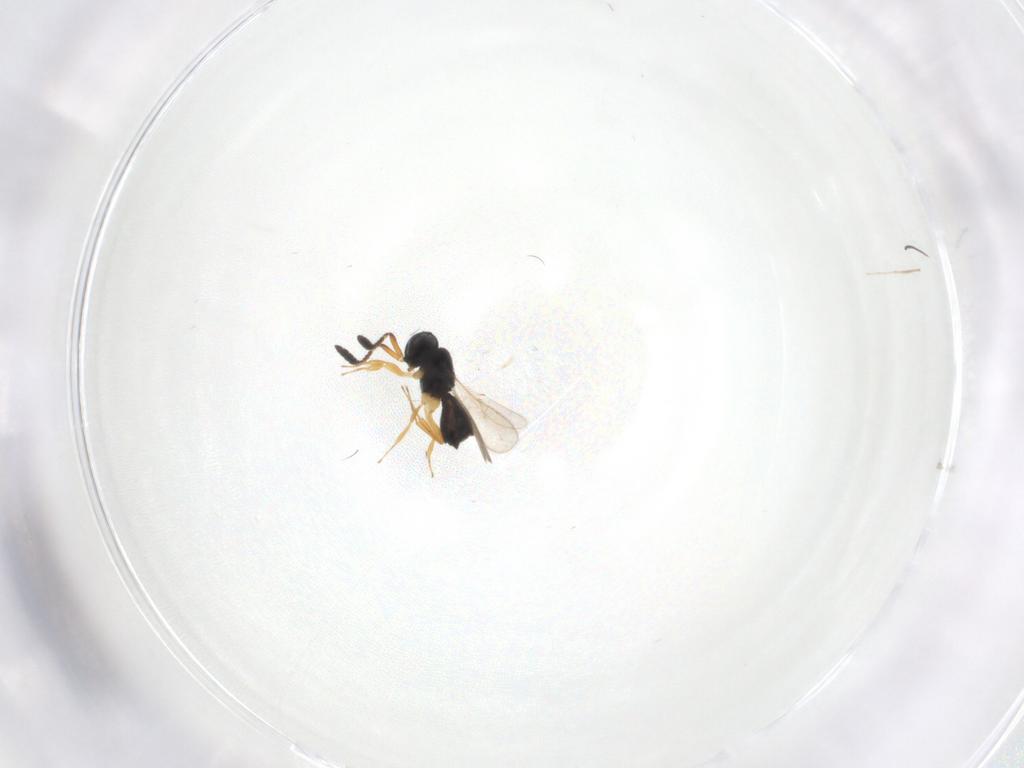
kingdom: Animalia
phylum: Arthropoda
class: Insecta
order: Hymenoptera
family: Scelionidae
